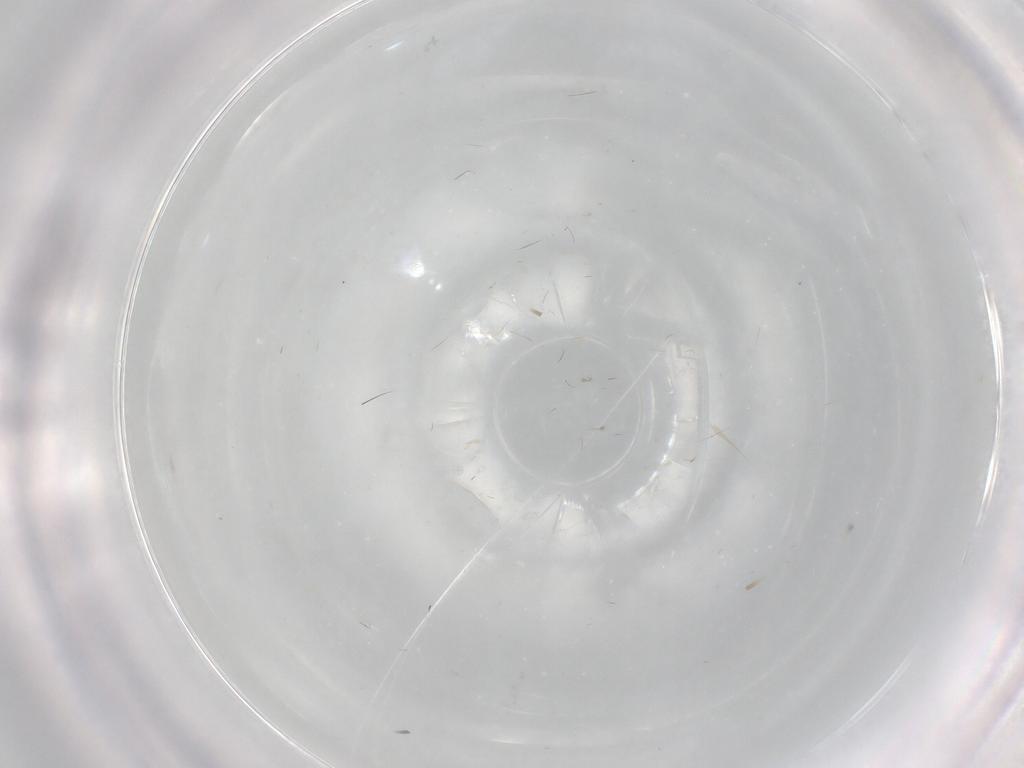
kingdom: Animalia
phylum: Arthropoda
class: Insecta
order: Diptera
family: Chironomidae
